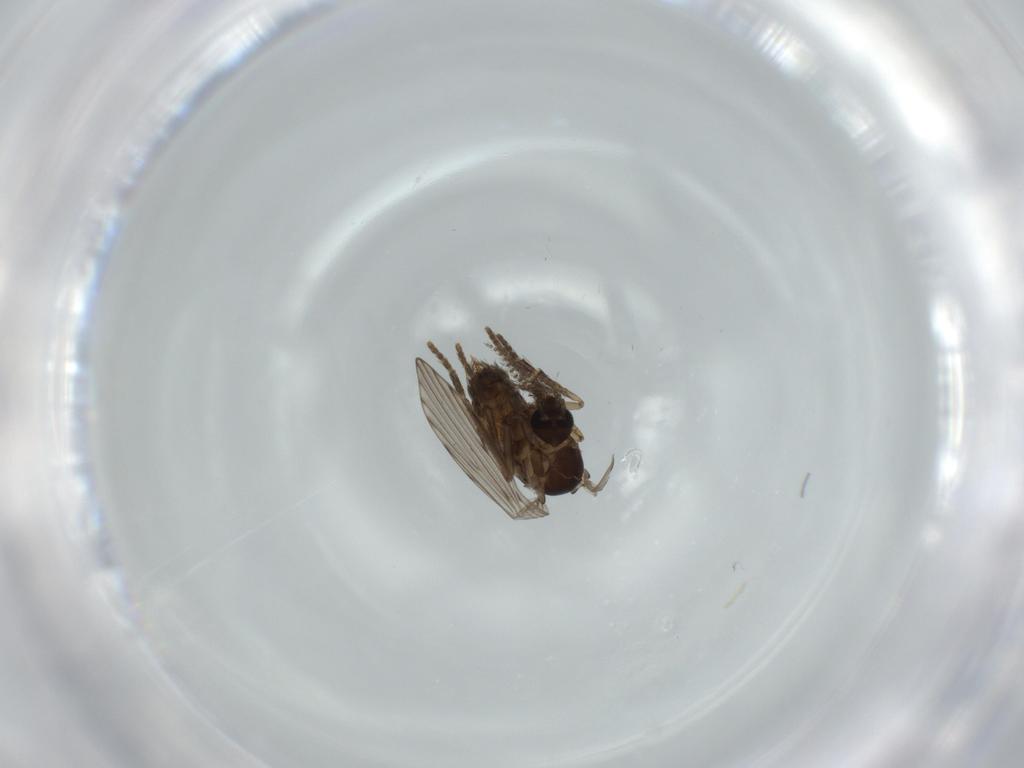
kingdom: Animalia
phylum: Arthropoda
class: Insecta
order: Diptera
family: Psychodidae
